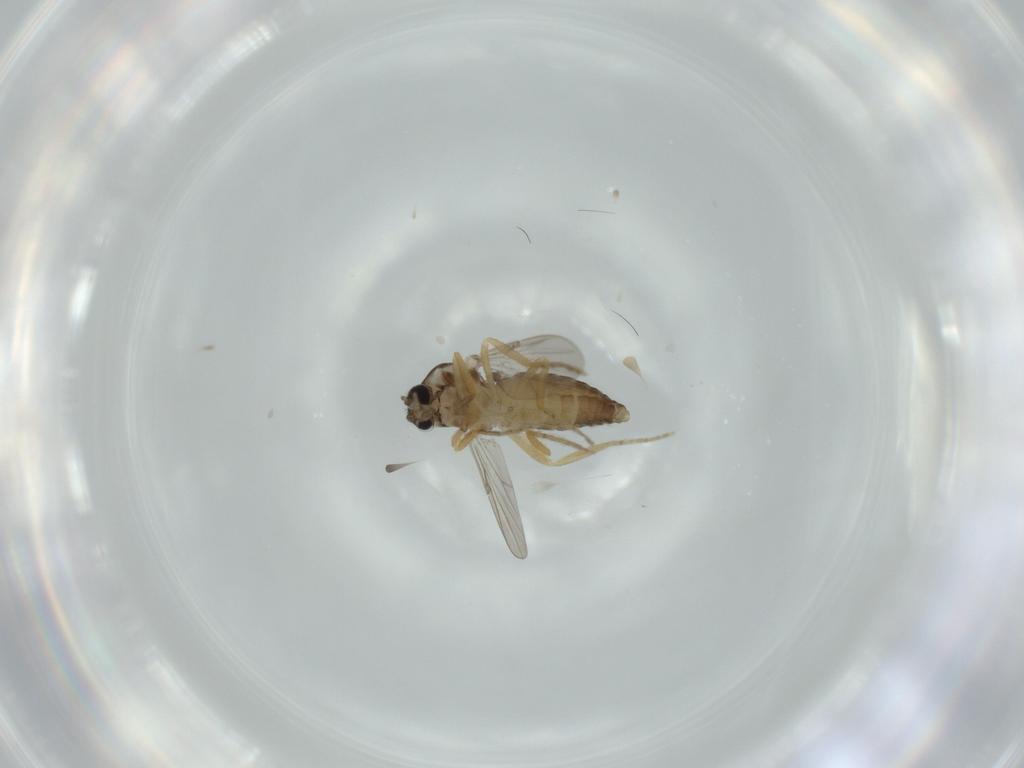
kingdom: Animalia
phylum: Arthropoda
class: Insecta
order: Diptera
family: Ceratopogonidae
